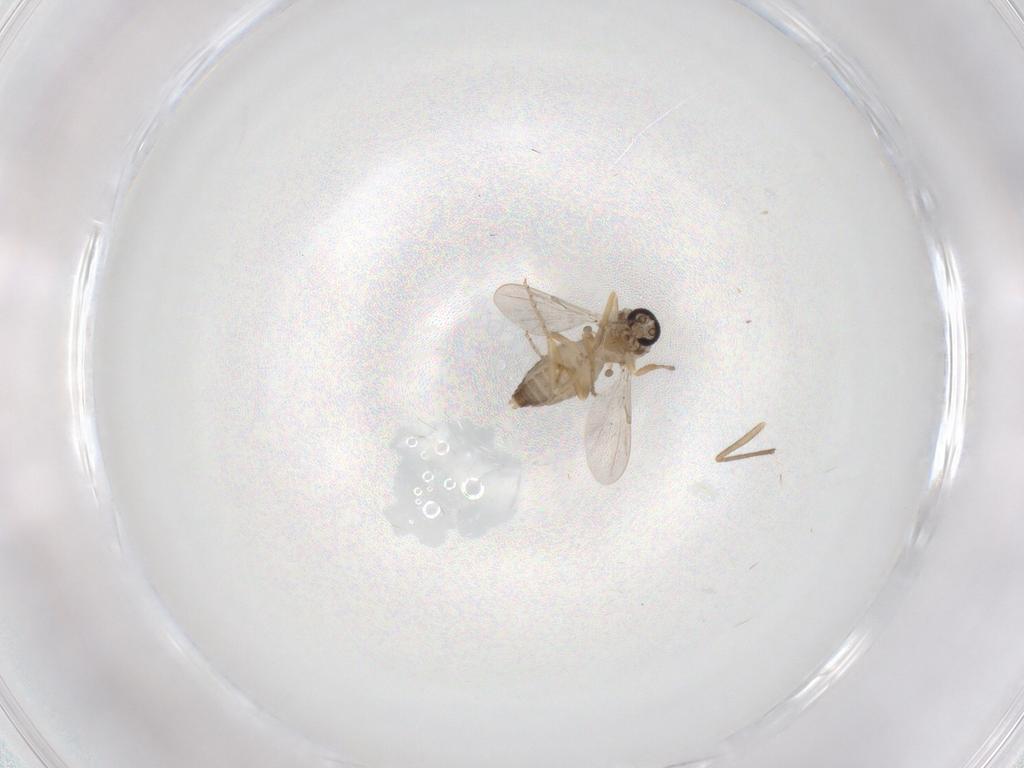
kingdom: Animalia
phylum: Arthropoda
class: Insecta
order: Diptera
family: Ceratopogonidae
